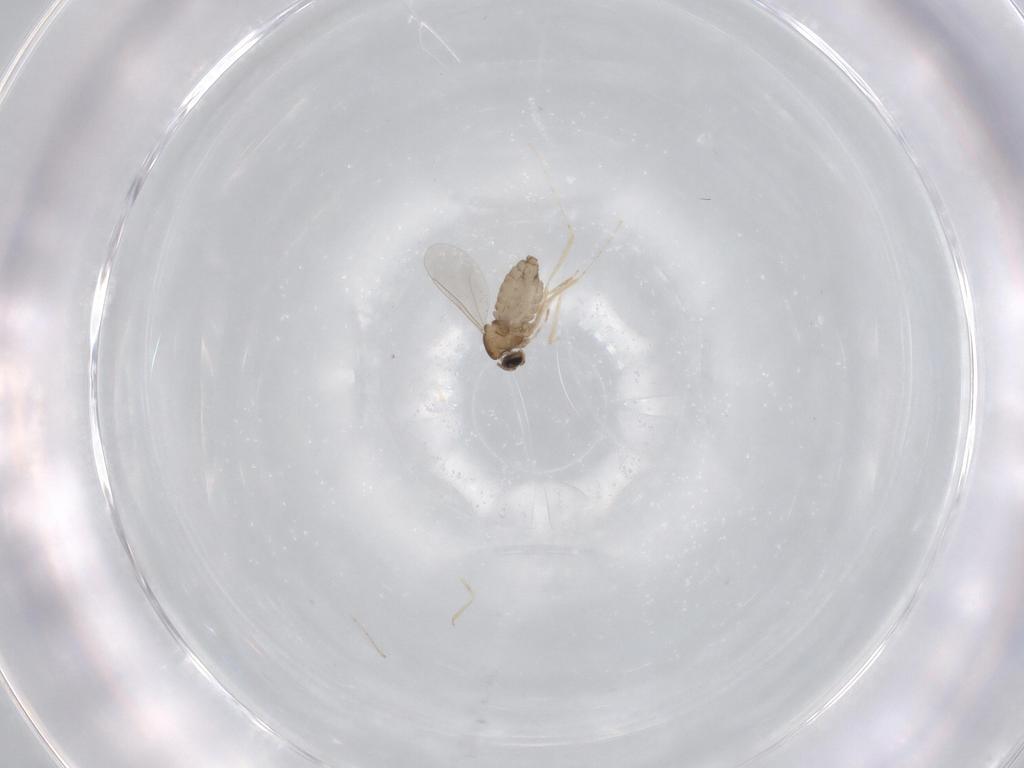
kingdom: Animalia
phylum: Arthropoda
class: Insecta
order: Diptera
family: Cecidomyiidae
